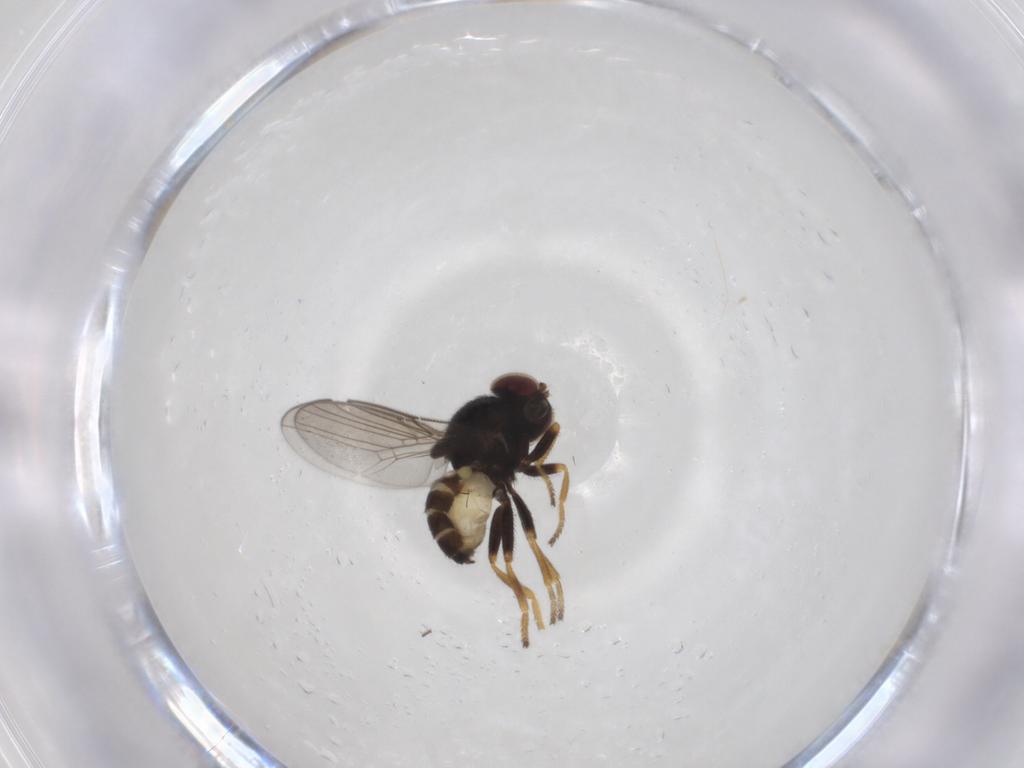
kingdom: Animalia
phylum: Arthropoda
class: Insecta
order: Diptera
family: Chloropidae
